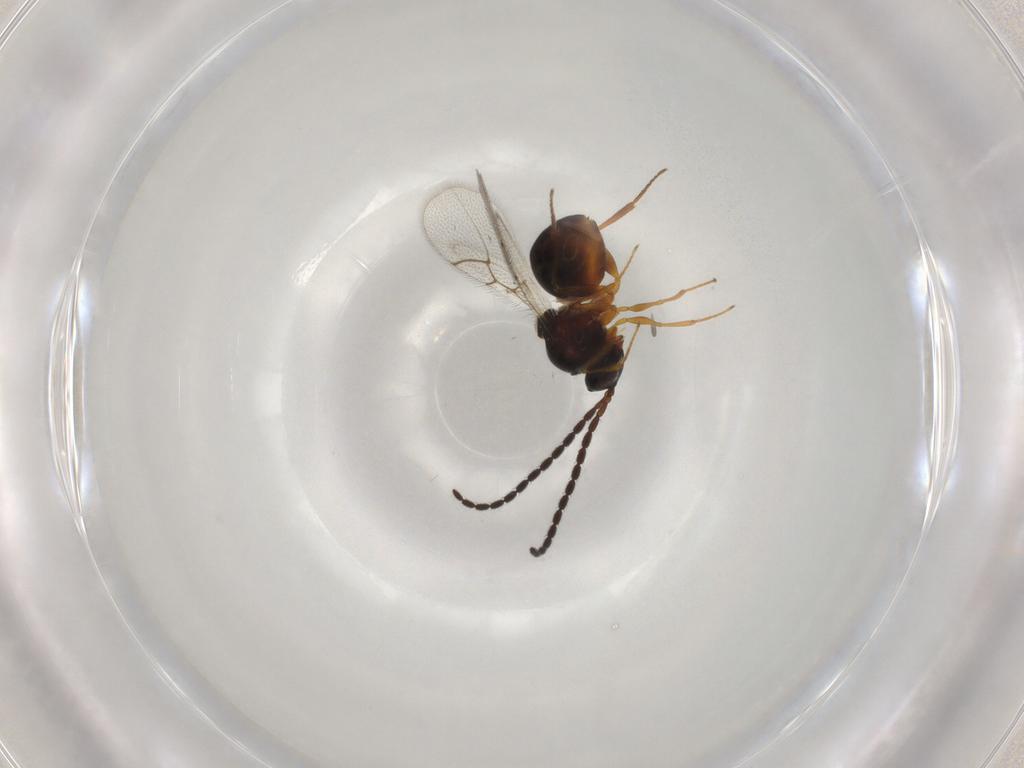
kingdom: Animalia
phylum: Arthropoda
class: Insecta
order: Hymenoptera
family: Figitidae
